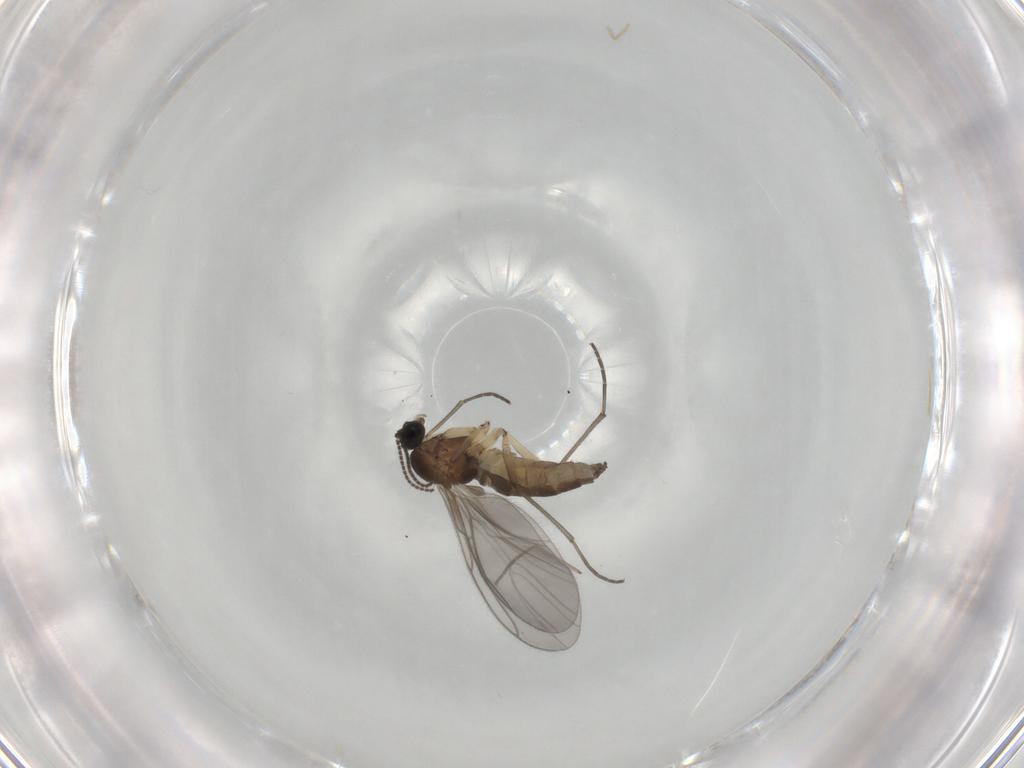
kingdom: Animalia
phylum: Arthropoda
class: Insecta
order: Diptera
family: Sciaridae
